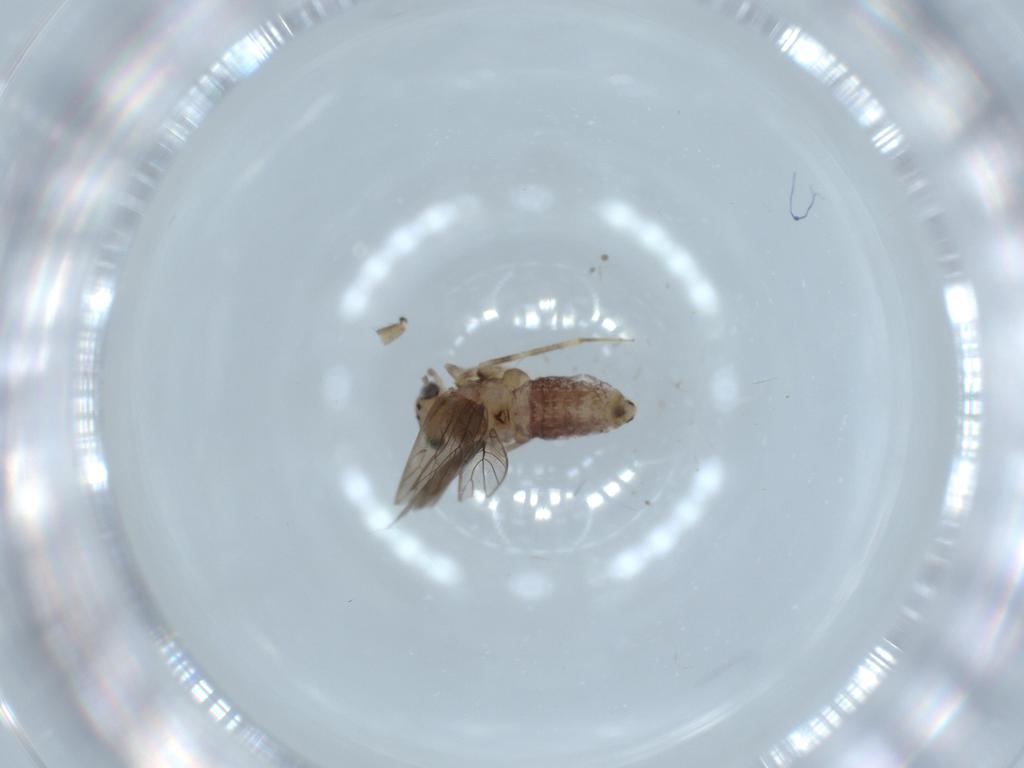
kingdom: Animalia
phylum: Arthropoda
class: Insecta
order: Psocodea
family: Lepidopsocidae
